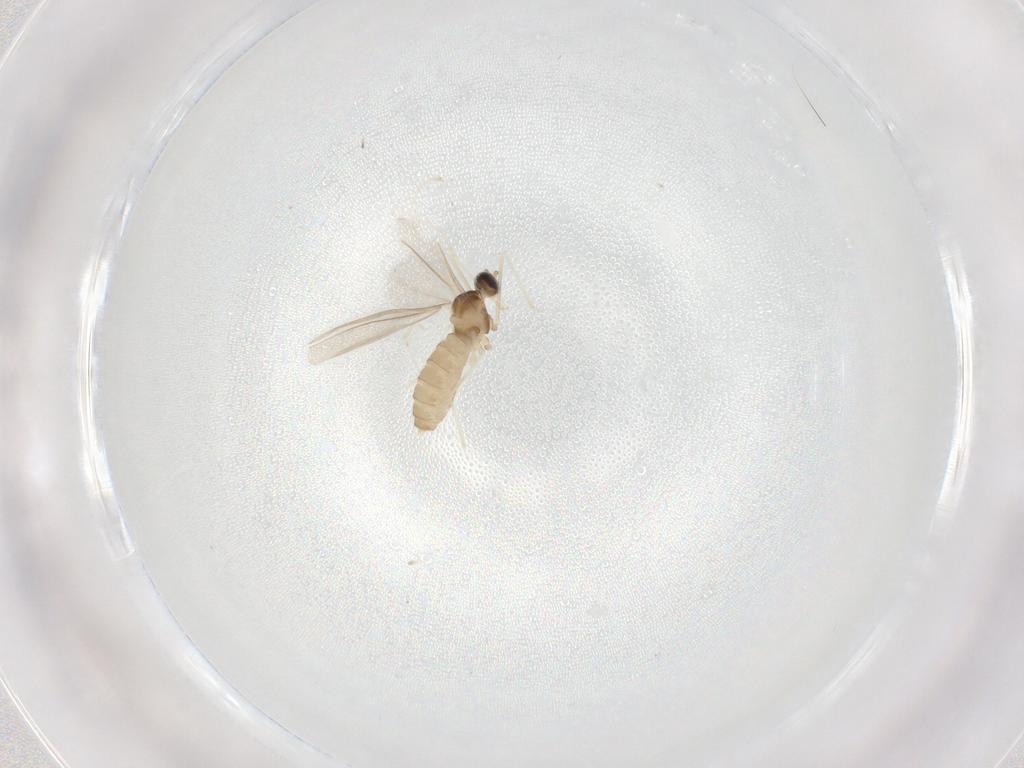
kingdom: Animalia
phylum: Arthropoda
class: Insecta
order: Diptera
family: Cecidomyiidae
